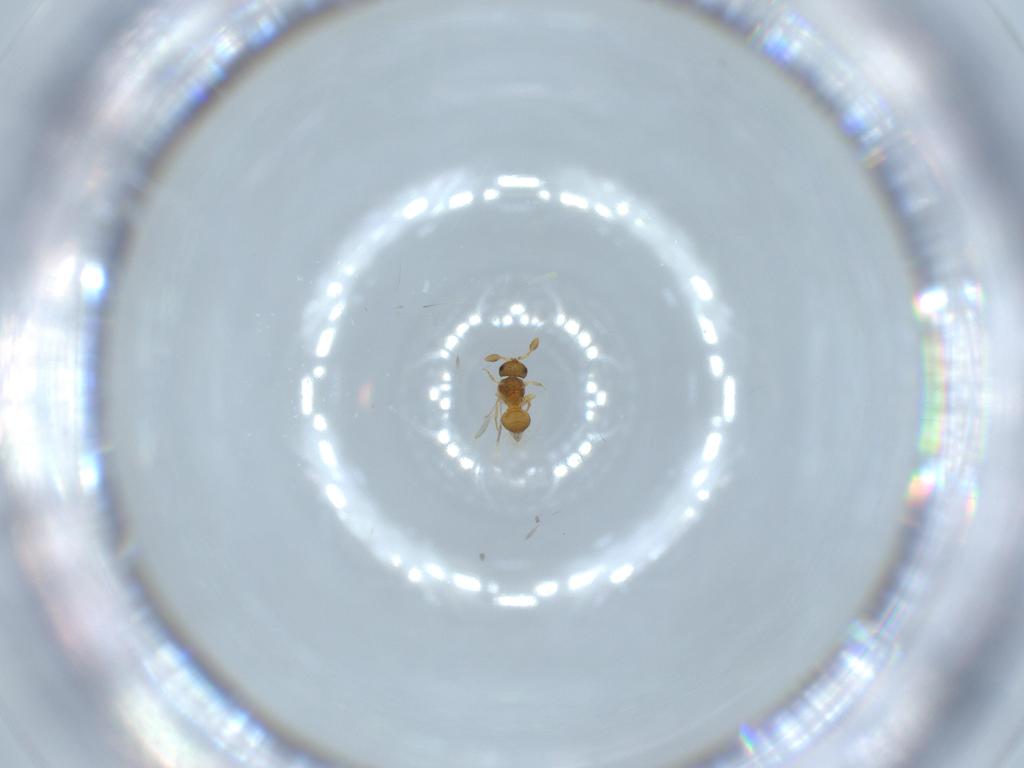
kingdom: Animalia
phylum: Arthropoda
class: Insecta
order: Hymenoptera
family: Scelionidae
